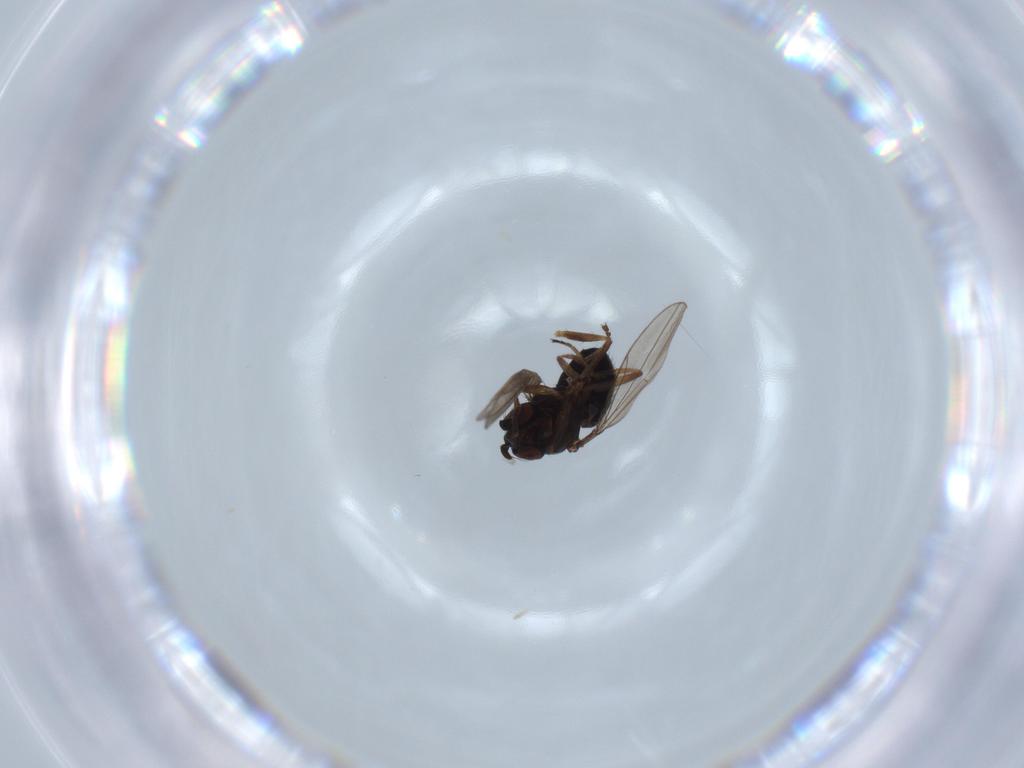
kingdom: Animalia
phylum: Arthropoda
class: Insecta
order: Diptera
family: Ephydridae
